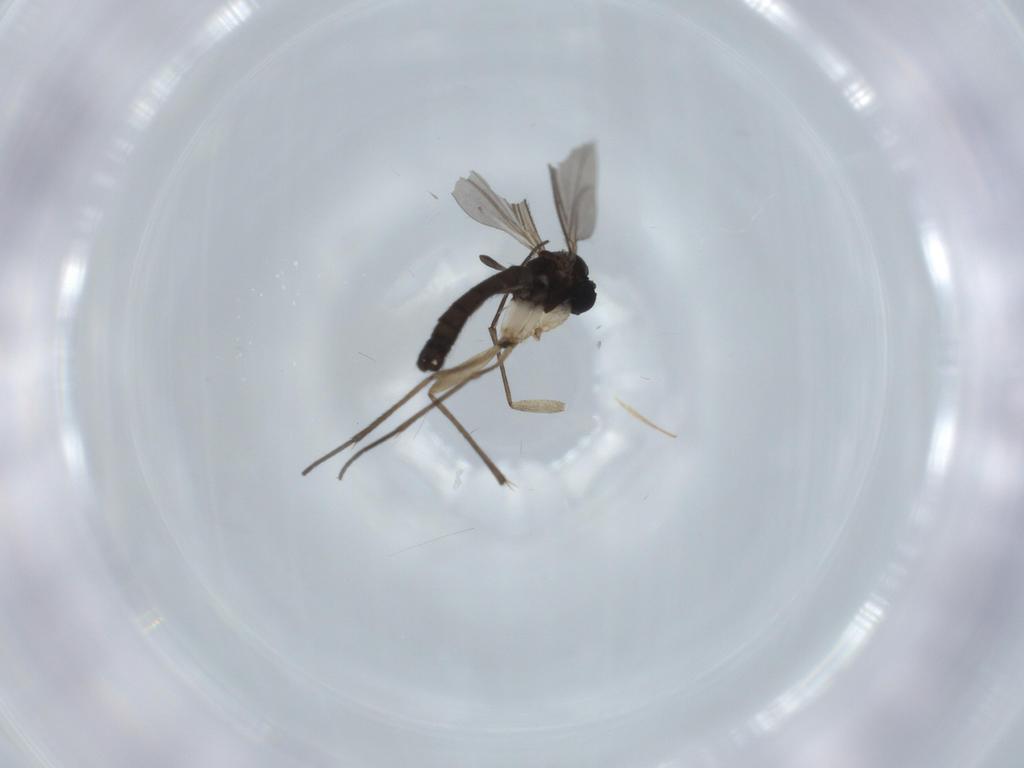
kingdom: Animalia
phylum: Arthropoda
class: Insecta
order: Diptera
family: Sciaridae
